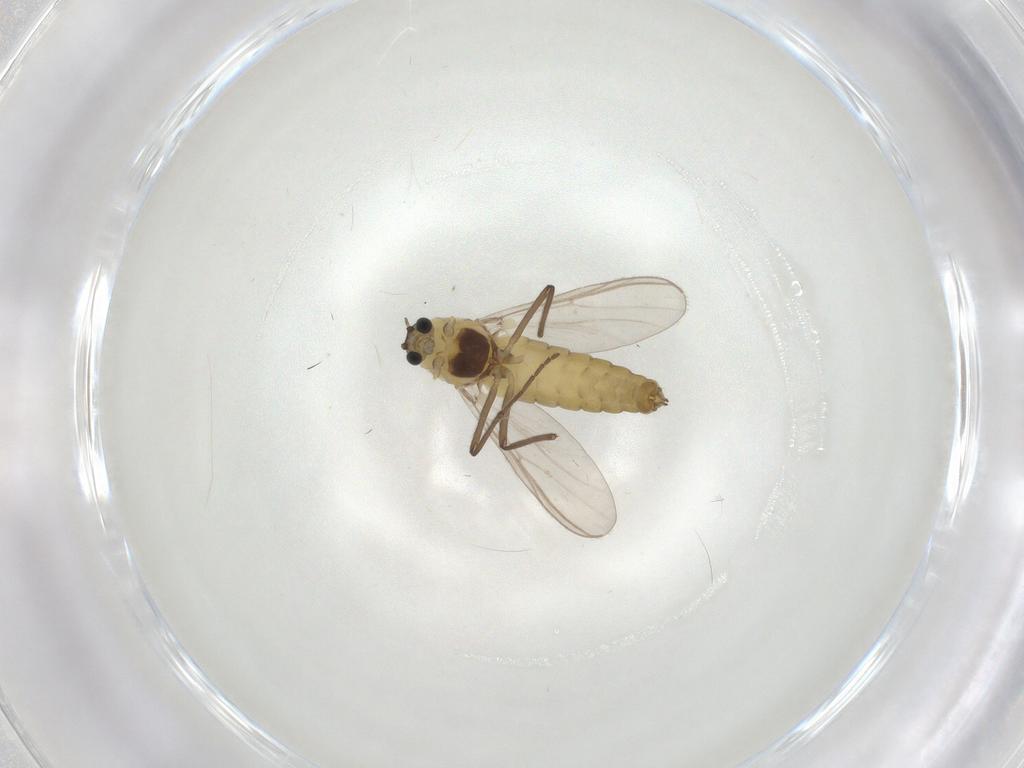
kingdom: Animalia
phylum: Arthropoda
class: Insecta
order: Diptera
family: Chironomidae
